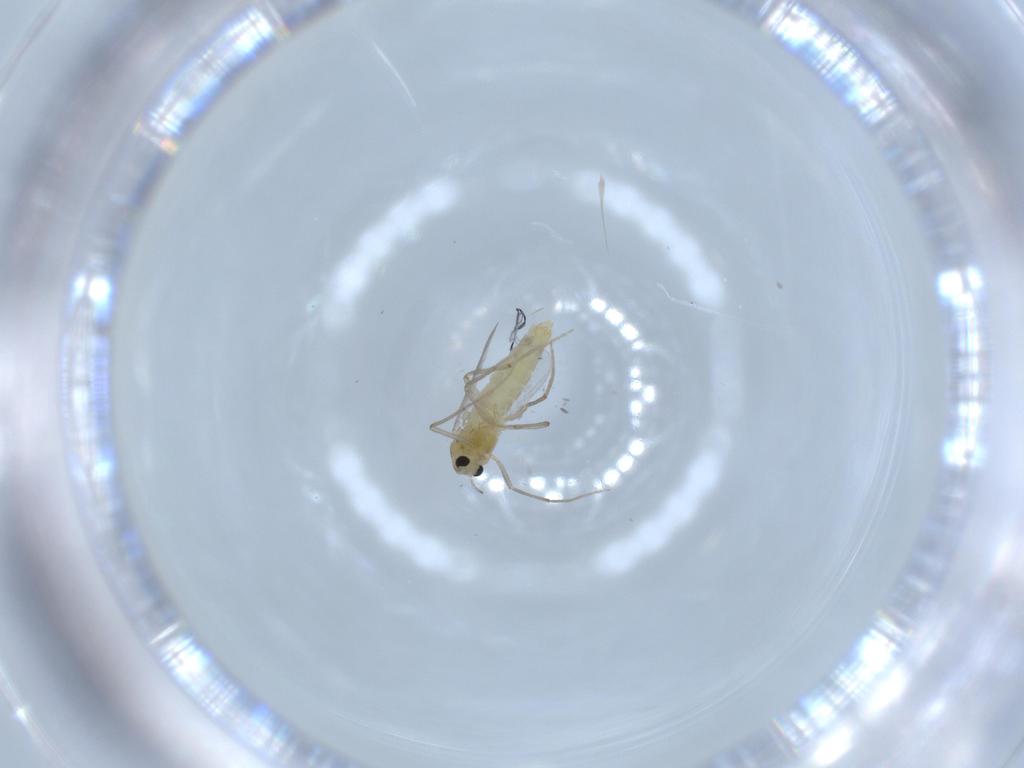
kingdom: Animalia
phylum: Arthropoda
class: Insecta
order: Diptera
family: Chironomidae
